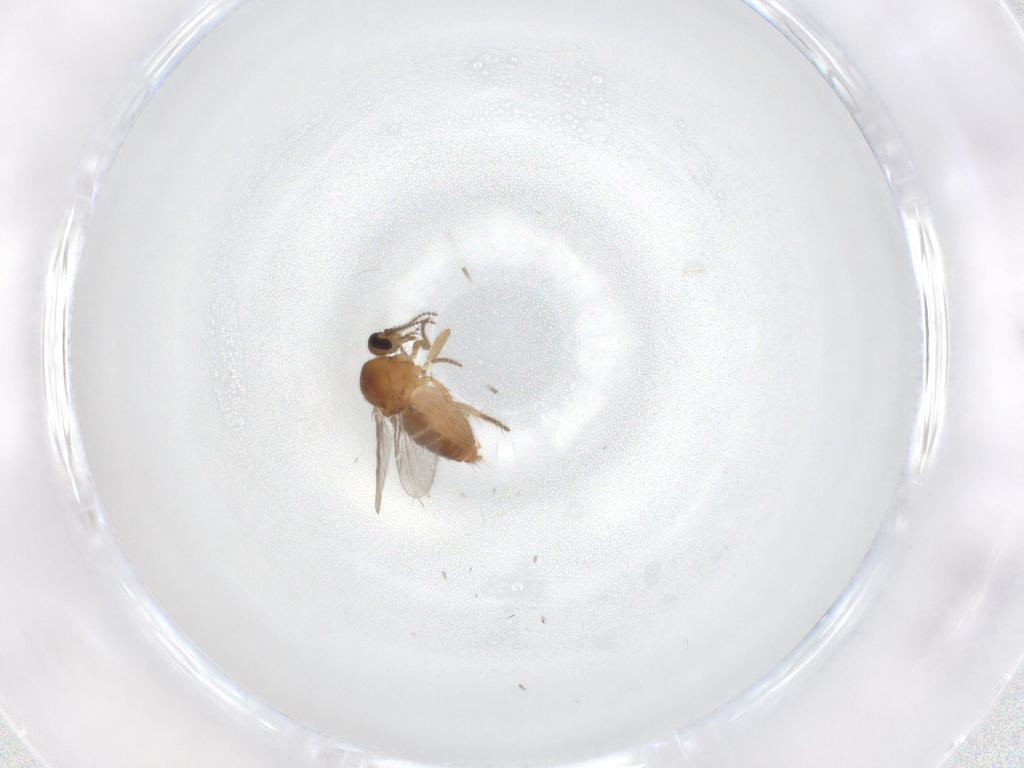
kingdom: Animalia
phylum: Arthropoda
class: Insecta
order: Diptera
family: Ceratopogonidae
